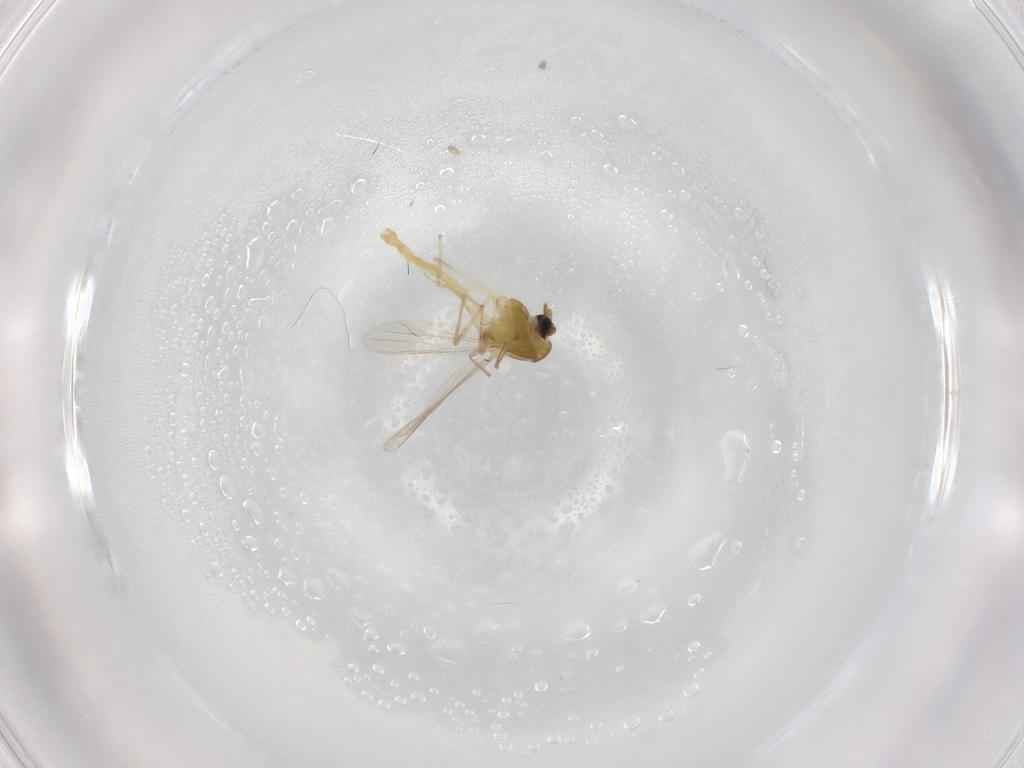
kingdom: Animalia
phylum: Arthropoda
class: Insecta
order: Diptera
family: Chironomidae
